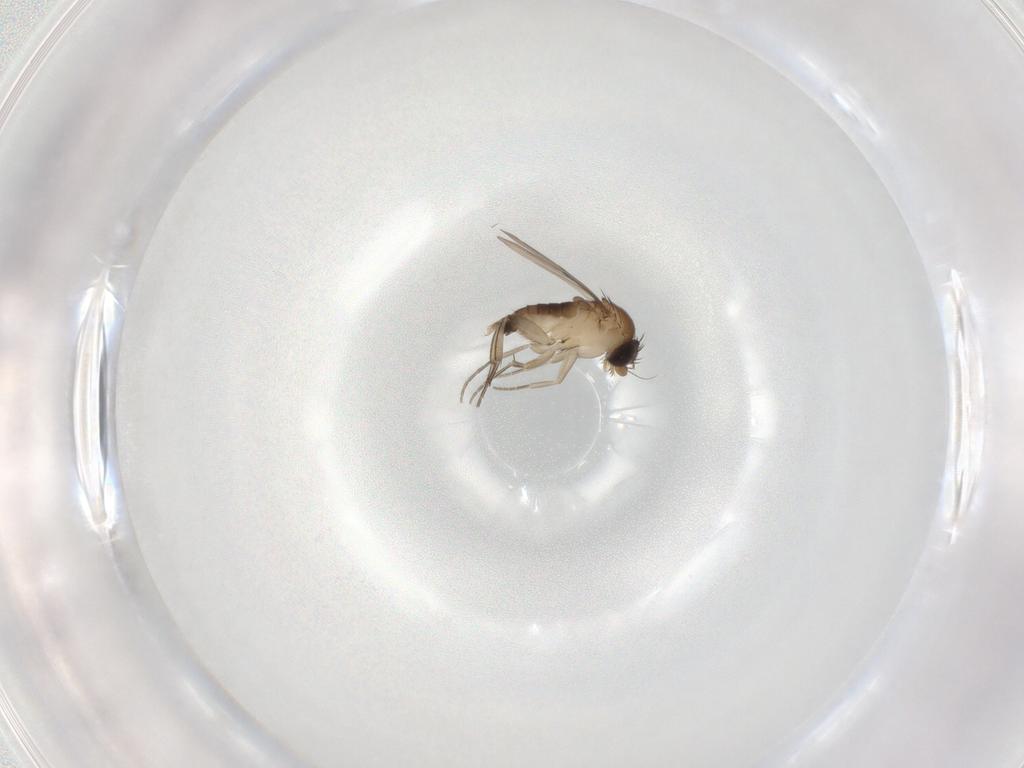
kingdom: Animalia
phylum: Arthropoda
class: Insecta
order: Diptera
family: Phoridae
